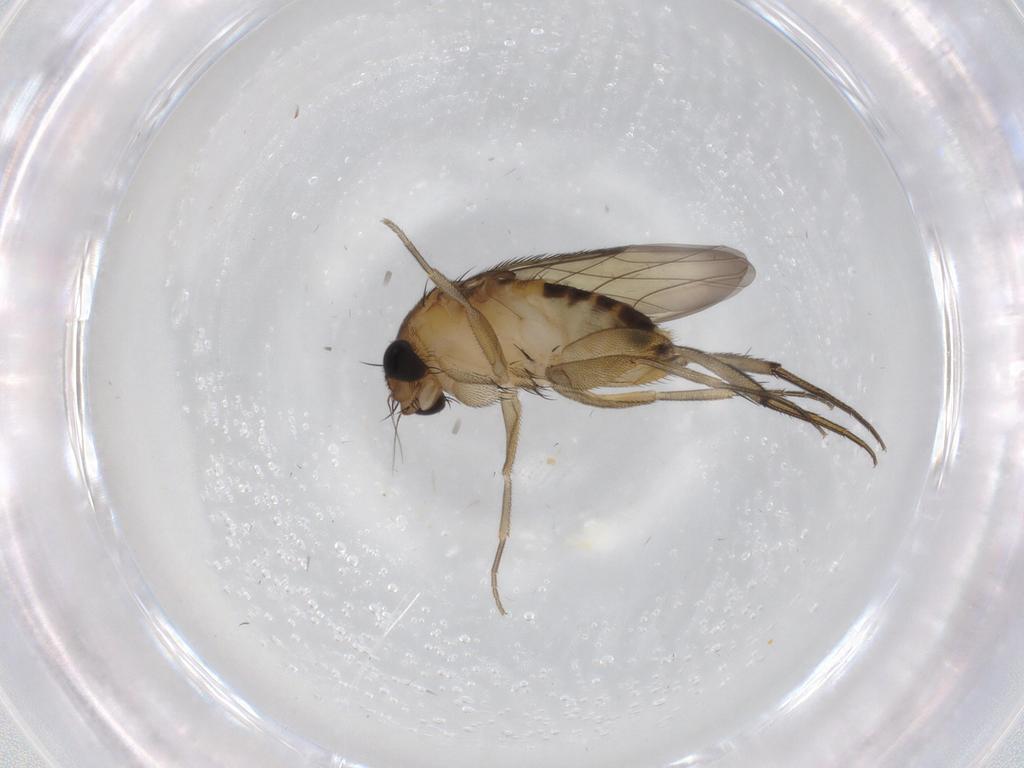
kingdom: Animalia
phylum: Arthropoda
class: Insecta
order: Diptera
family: Phoridae
